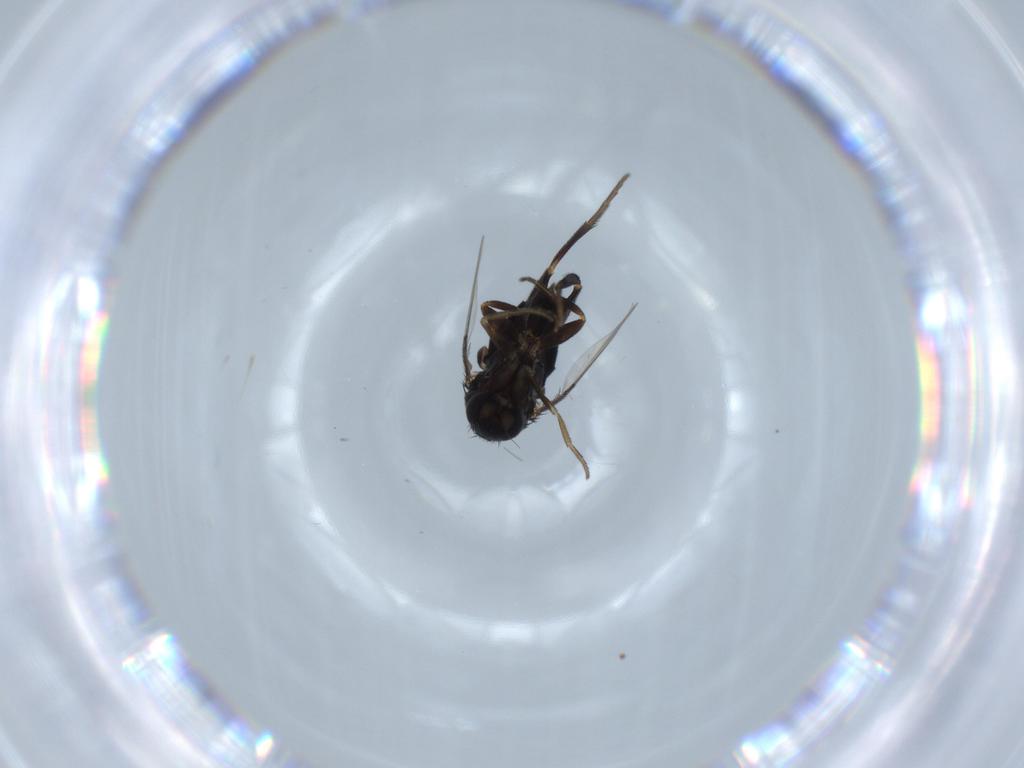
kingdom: Animalia
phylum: Arthropoda
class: Insecta
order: Diptera
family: Phoridae
